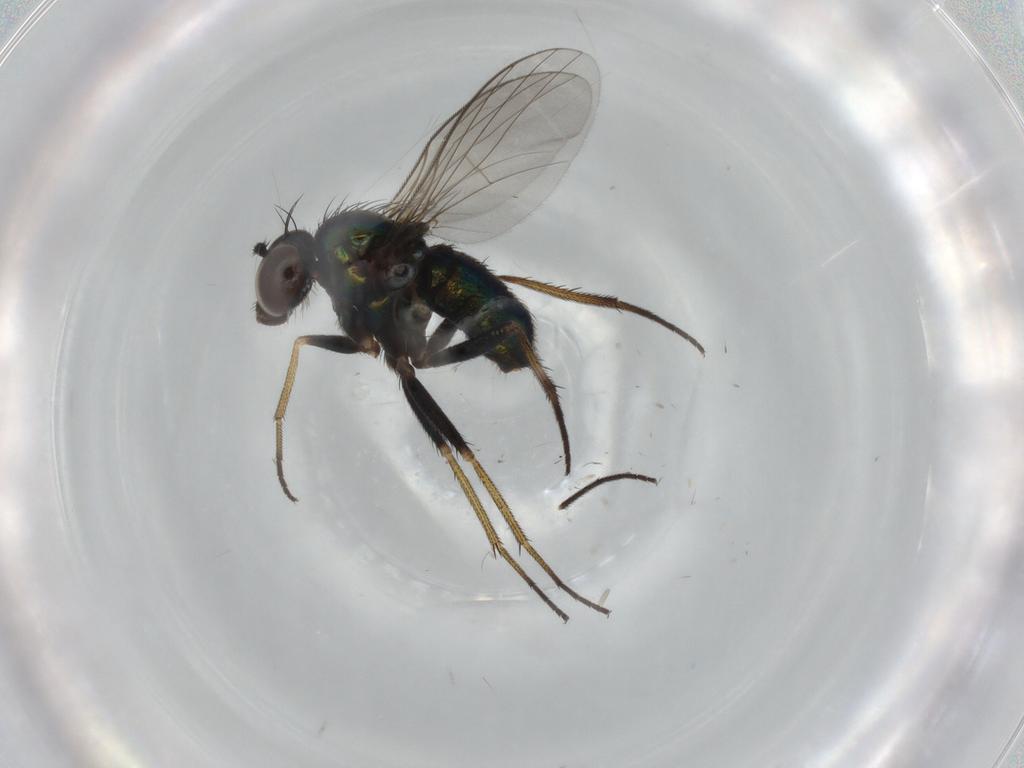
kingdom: Animalia
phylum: Arthropoda
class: Insecta
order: Diptera
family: Dolichopodidae
